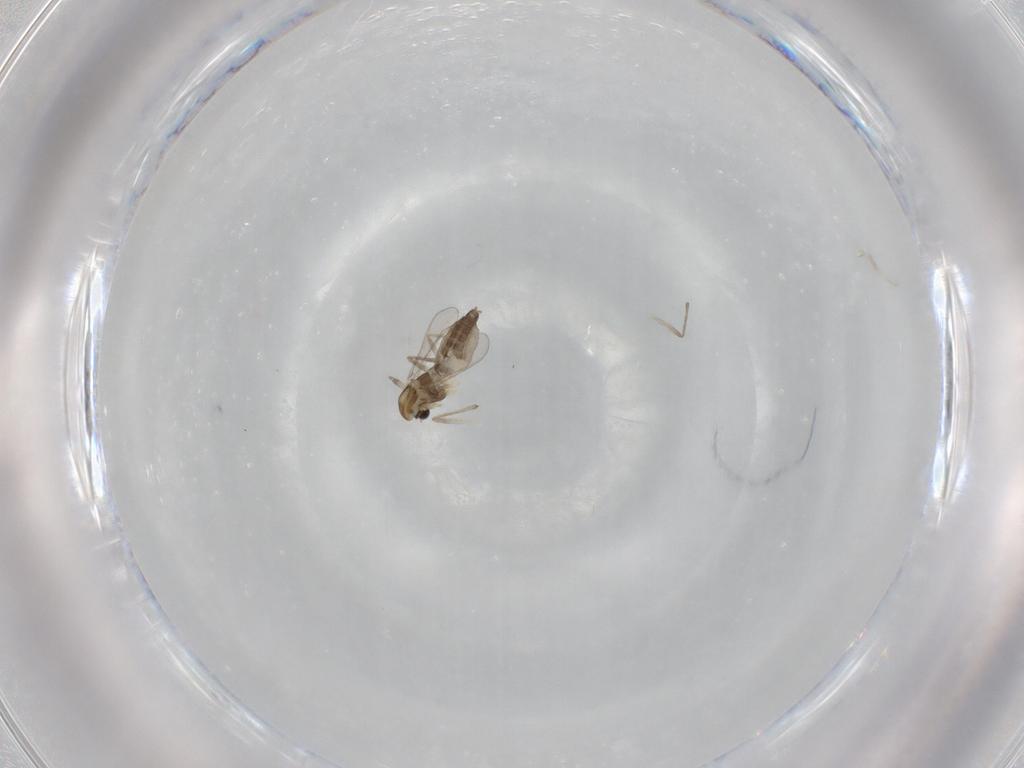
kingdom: Animalia
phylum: Arthropoda
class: Insecta
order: Diptera
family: Chironomidae
